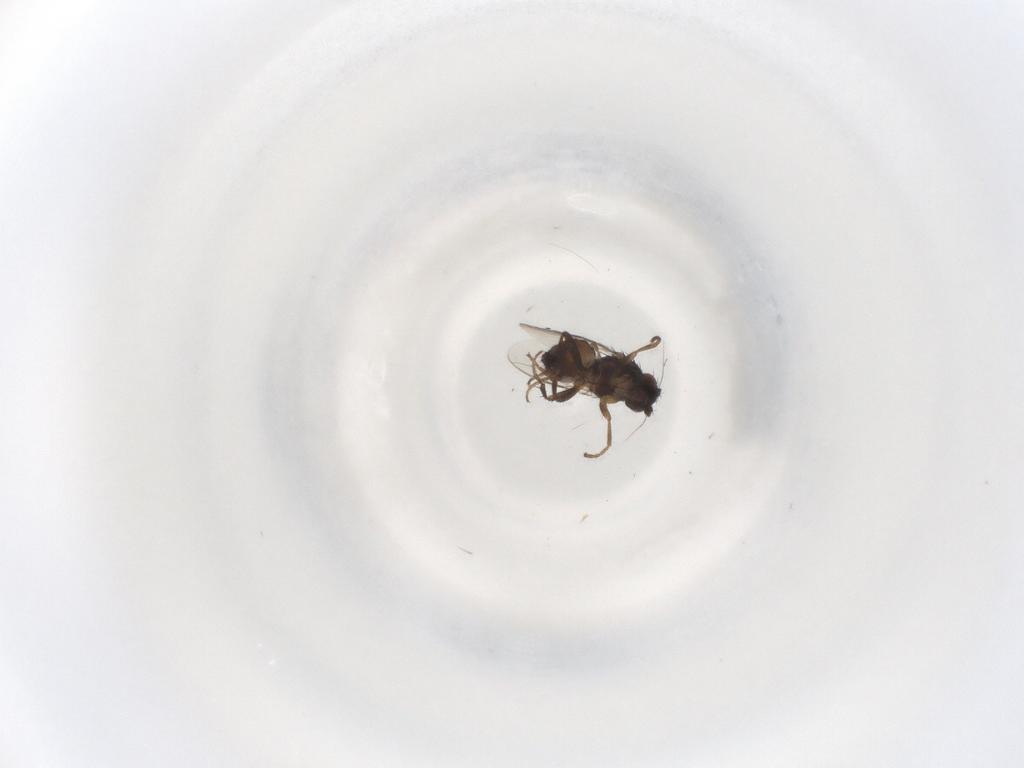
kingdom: Animalia
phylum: Arthropoda
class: Insecta
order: Diptera
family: Sphaeroceridae
